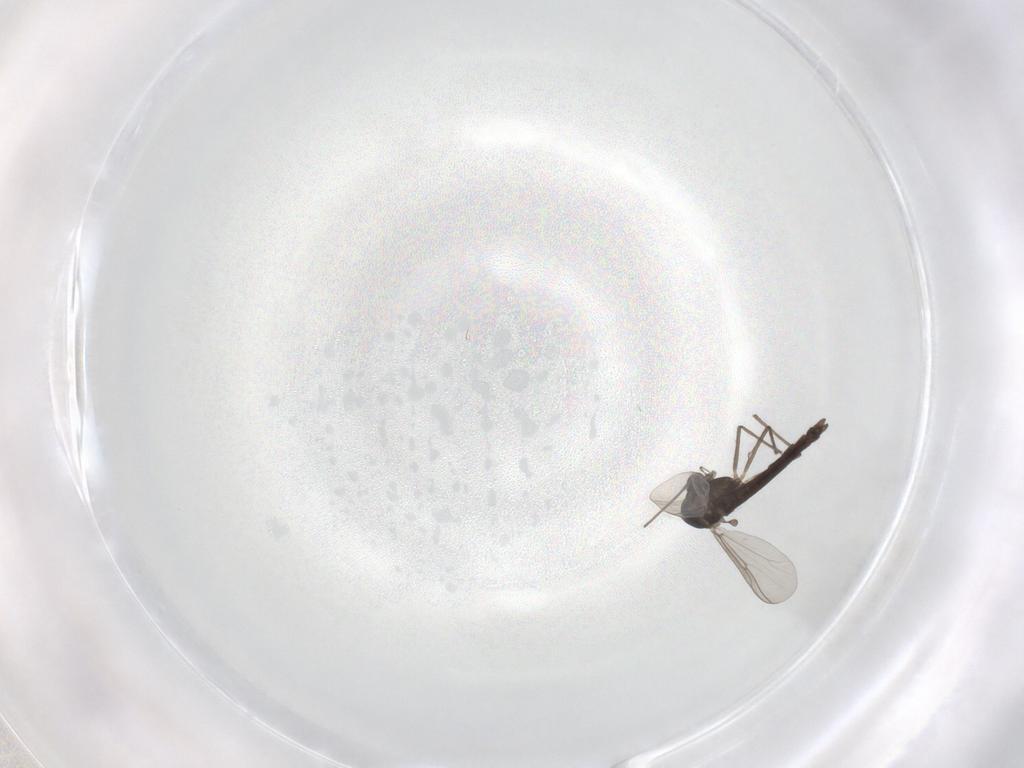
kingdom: Animalia
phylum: Arthropoda
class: Insecta
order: Diptera
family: Chironomidae
